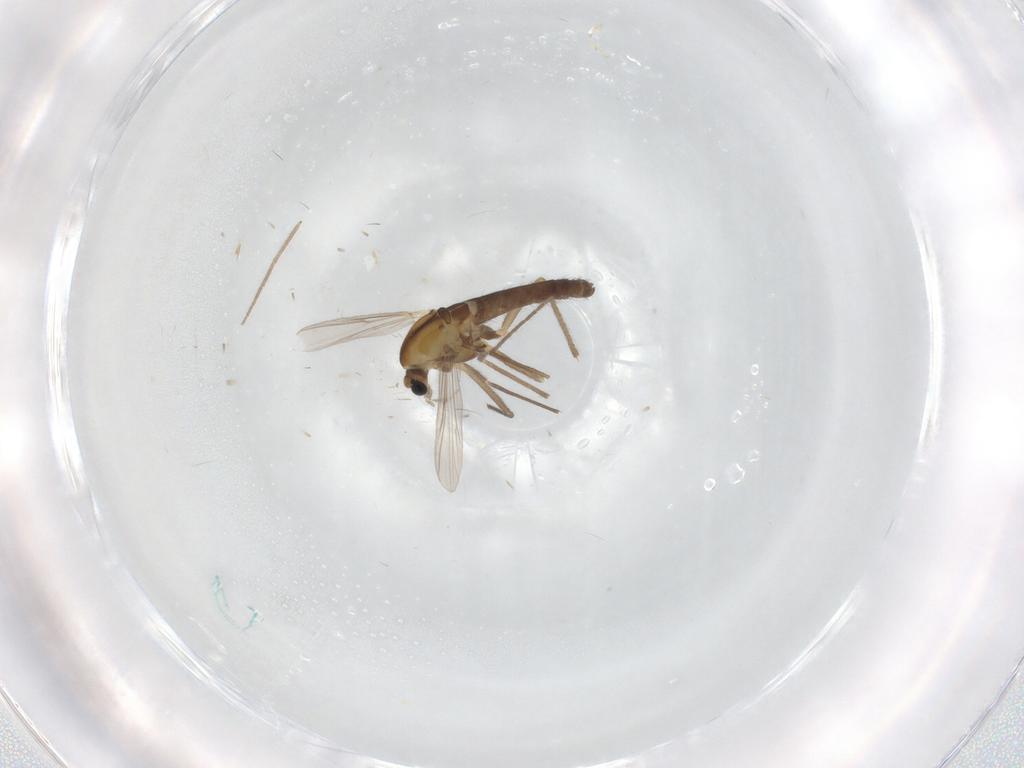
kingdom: Animalia
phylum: Arthropoda
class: Insecta
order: Diptera
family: Chironomidae
